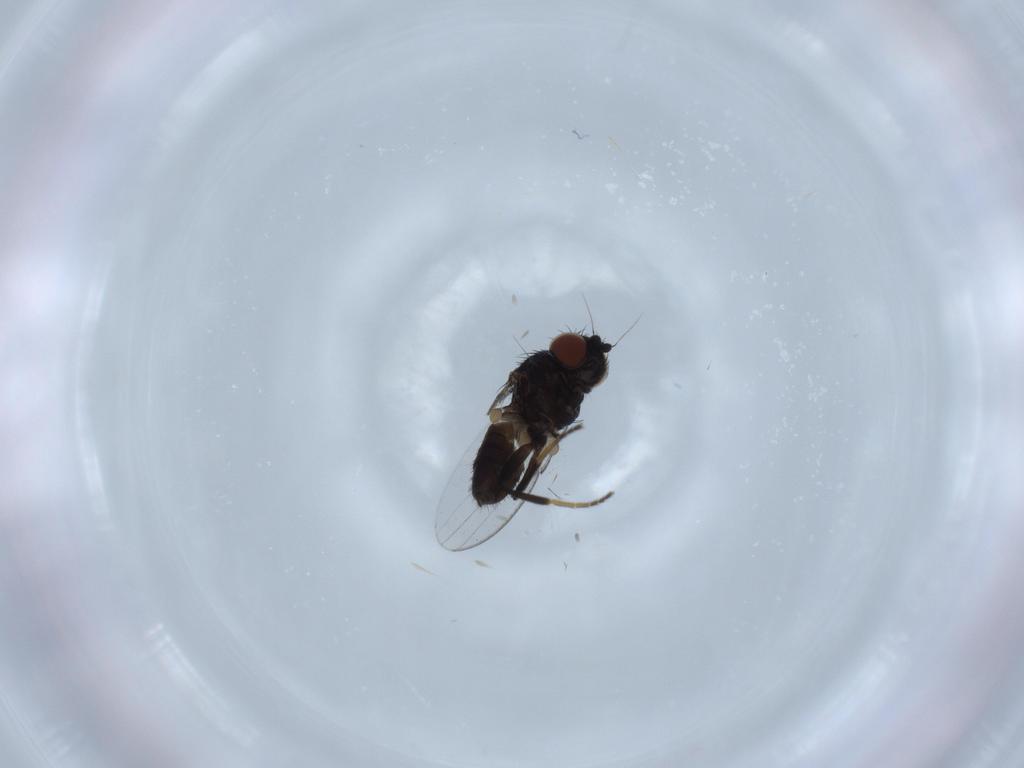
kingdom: Animalia
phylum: Arthropoda
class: Insecta
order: Diptera
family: Milichiidae
